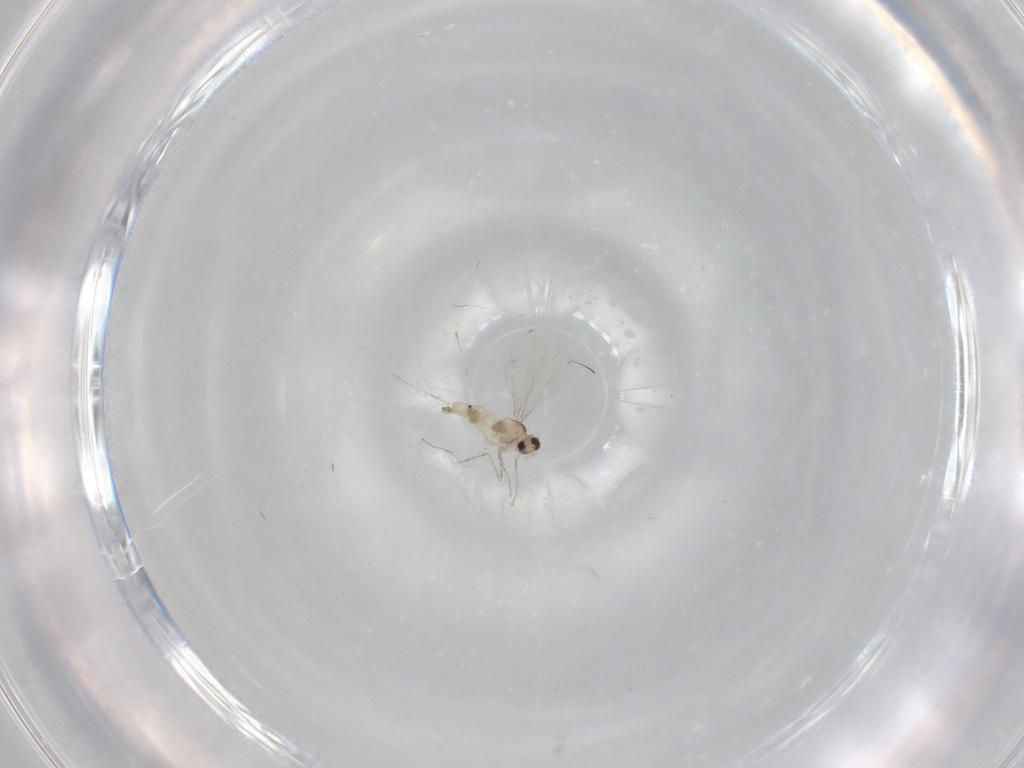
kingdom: Animalia
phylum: Arthropoda
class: Insecta
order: Diptera
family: Cecidomyiidae
